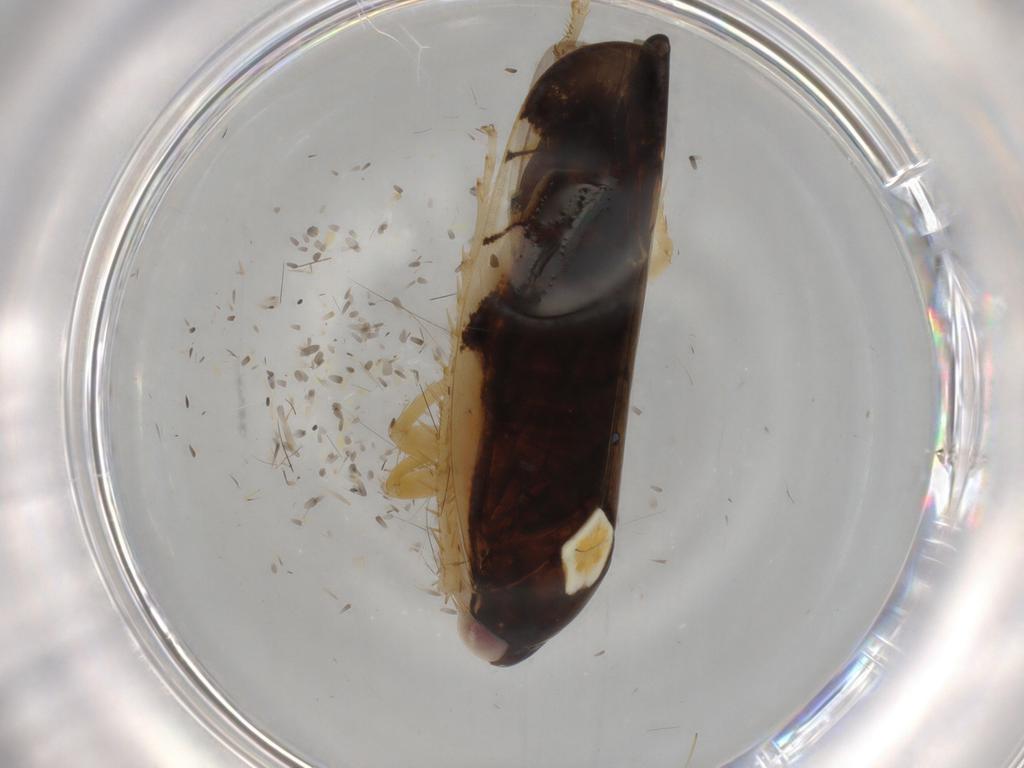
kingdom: Animalia
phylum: Arthropoda
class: Insecta
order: Hemiptera
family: Cicadellidae
